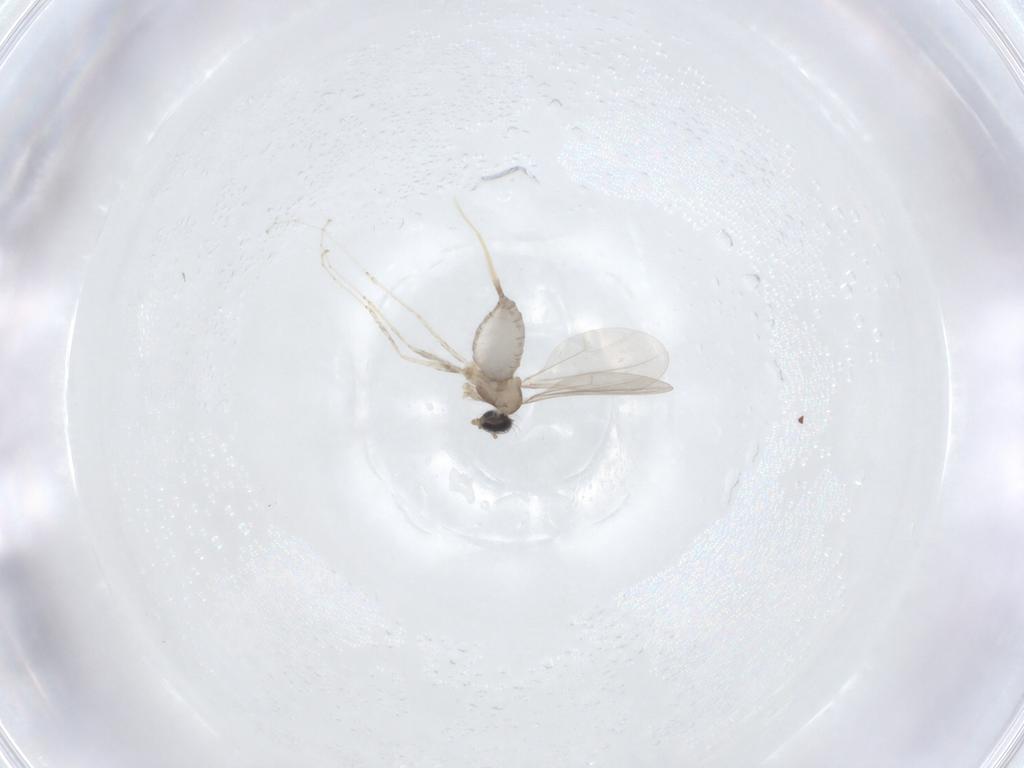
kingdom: Animalia
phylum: Arthropoda
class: Insecta
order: Diptera
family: Cecidomyiidae
